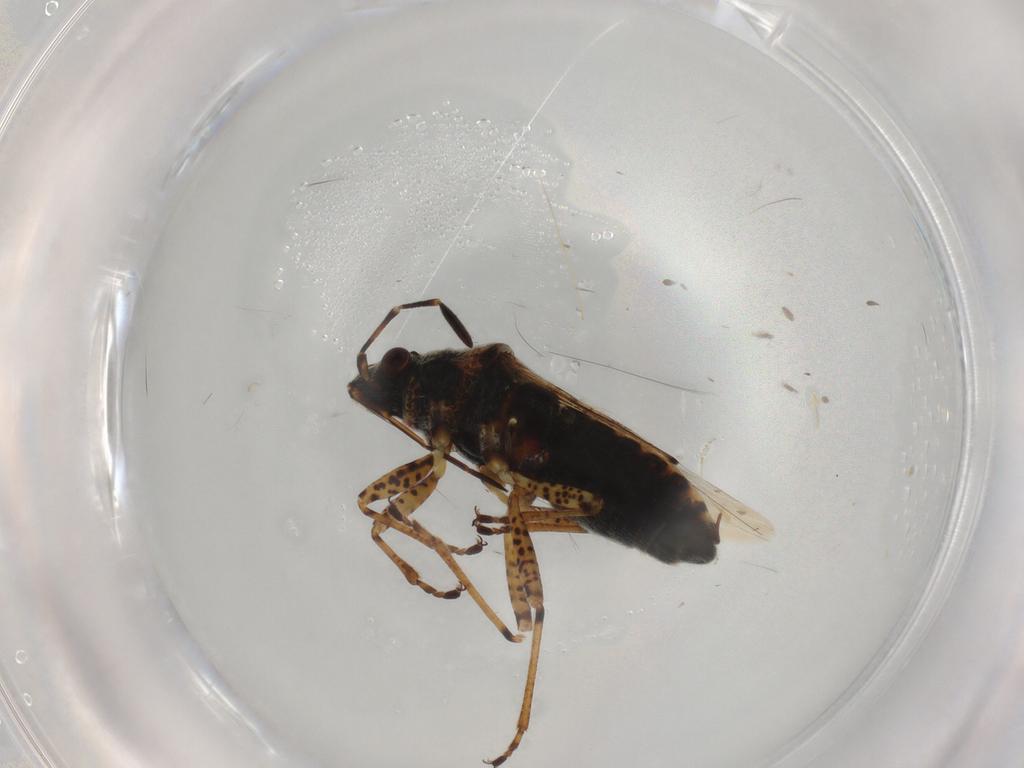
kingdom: Animalia
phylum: Arthropoda
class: Insecta
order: Hemiptera
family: Lygaeidae
